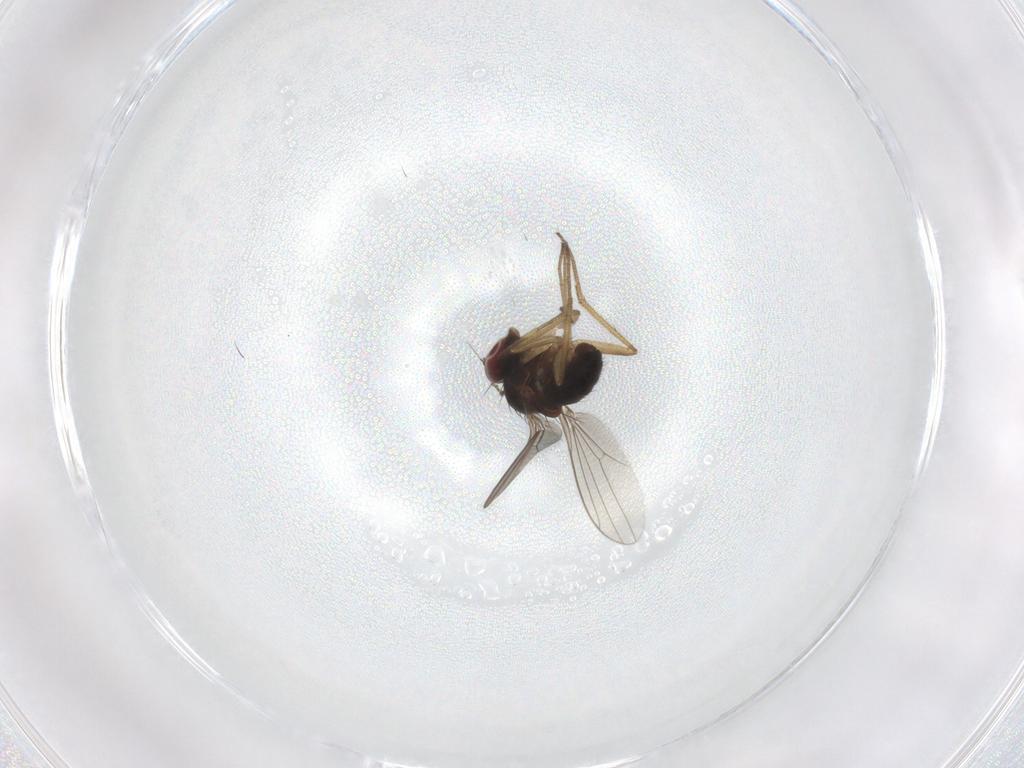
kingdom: Animalia
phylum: Arthropoda
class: Insecta
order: Diptera
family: Dolichopodidae
